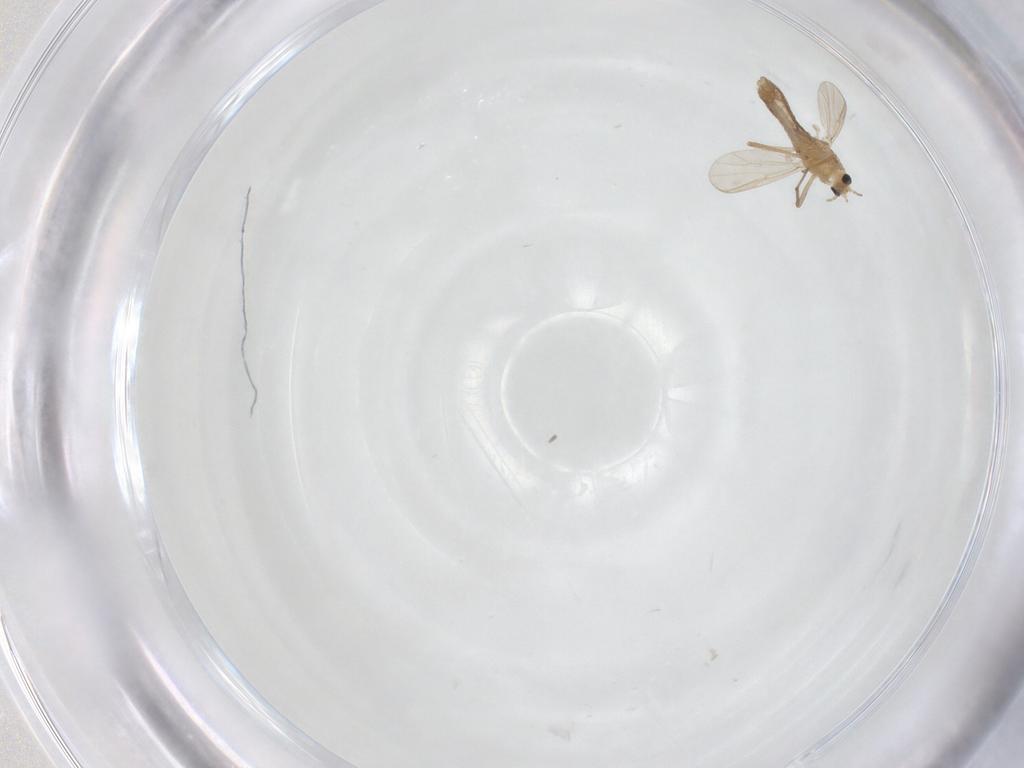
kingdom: Animalia
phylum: Arthropoda
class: Insecta
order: Diptera
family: Chironomidae
